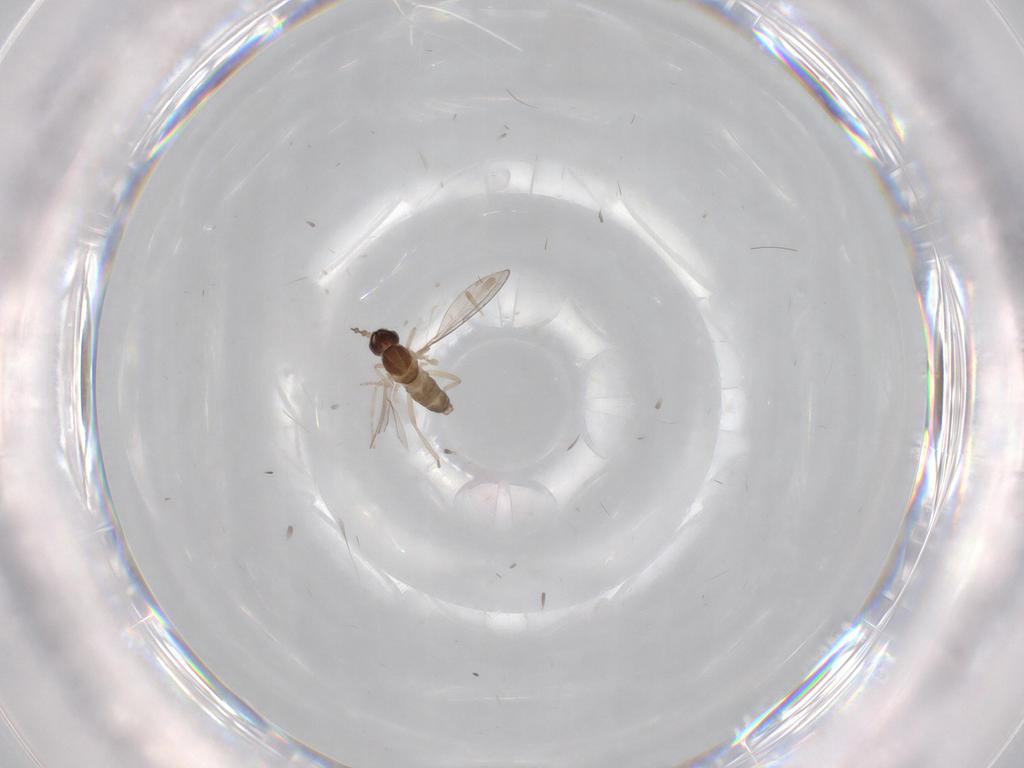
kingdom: Animalia
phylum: Arthropoda
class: Insecta
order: Diptera
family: Cecidomyiidae
